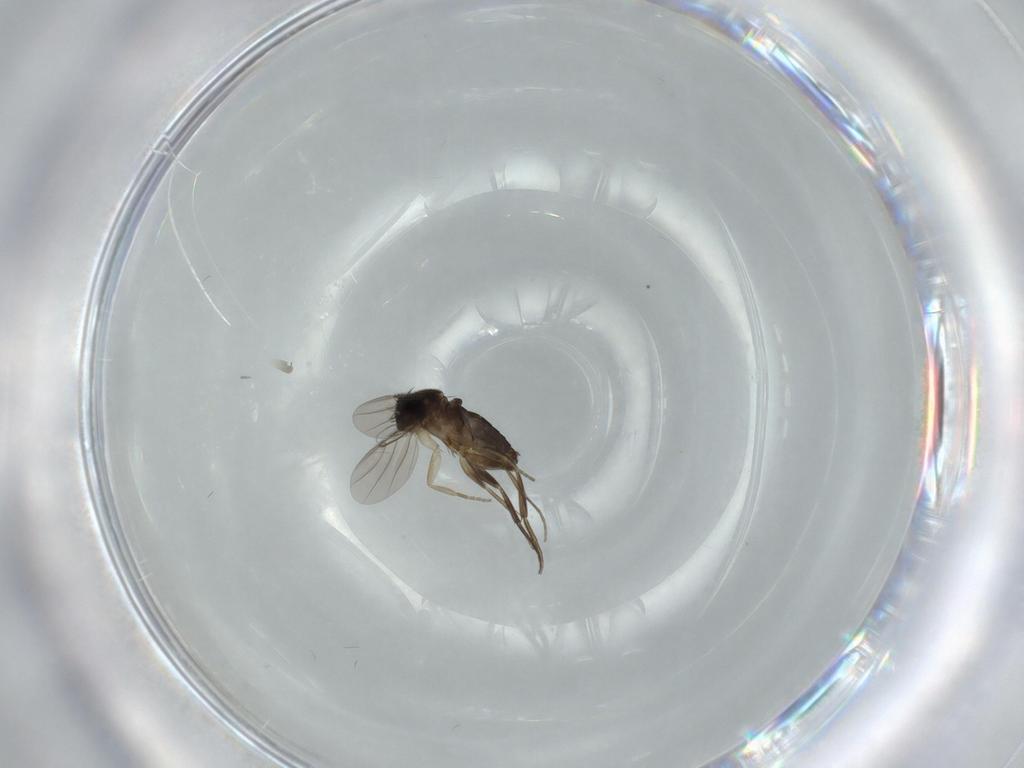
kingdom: Animalia
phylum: Arthropoda
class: Insecta
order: Diptera
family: Phoridae
